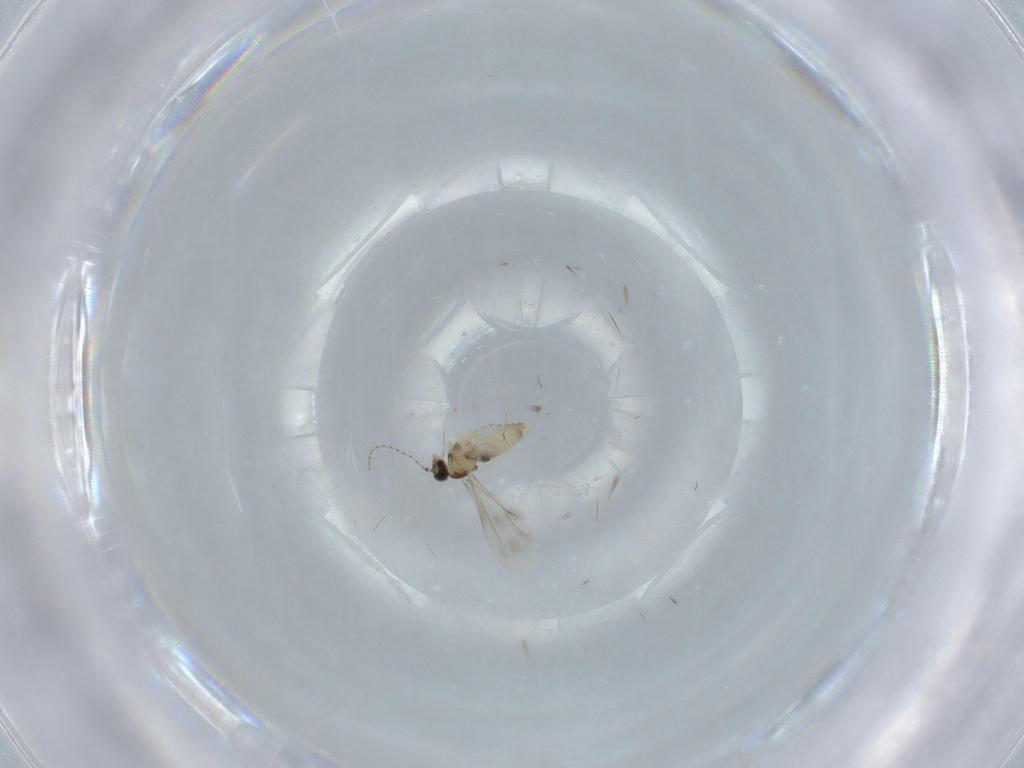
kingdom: Animalia
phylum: Arthropoda
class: Insecta
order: Diptera
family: Cecidomyiidae
